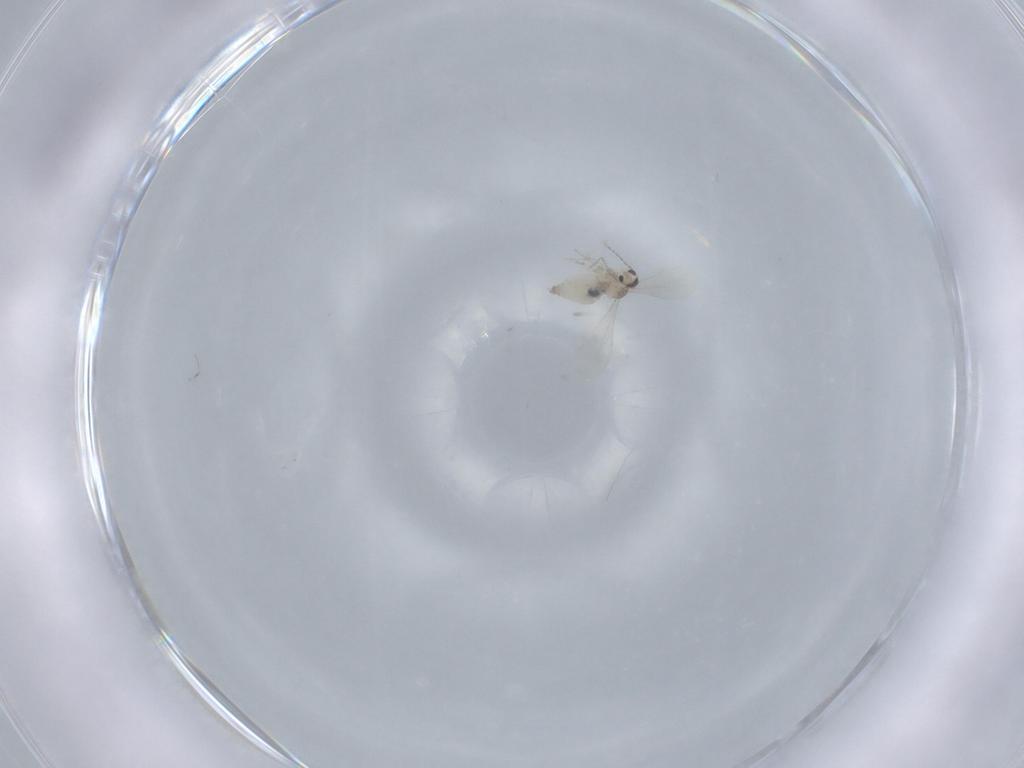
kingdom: Animalia
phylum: Arthropoda
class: Insecta
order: Diptera
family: Cecidomyiidae
